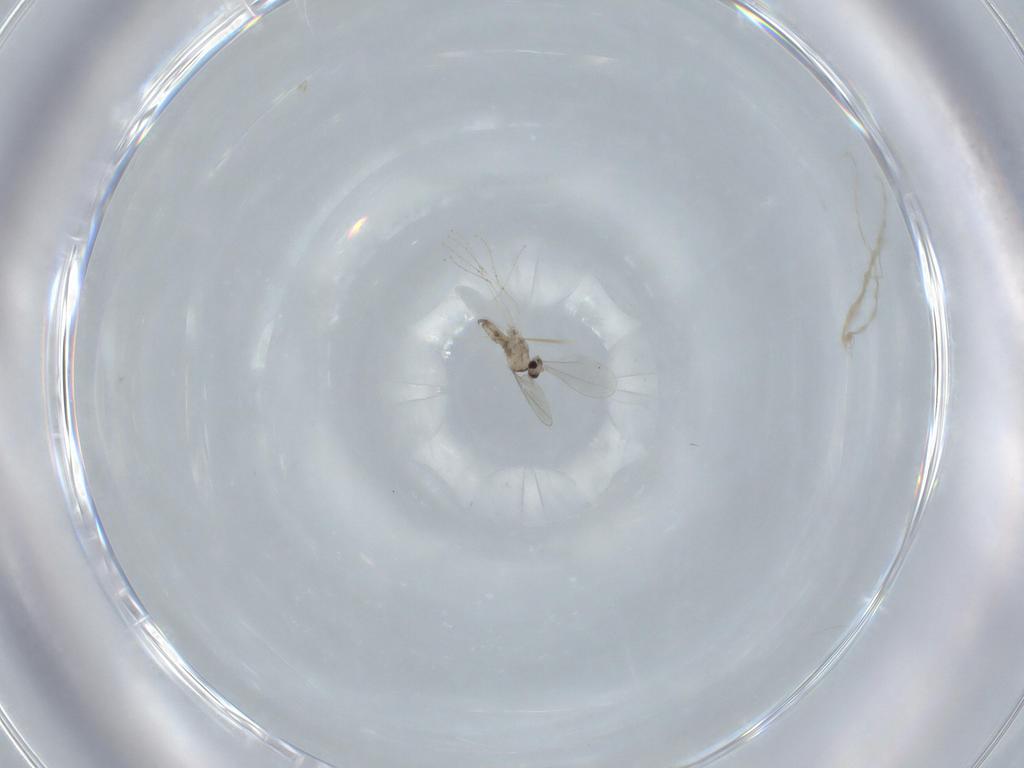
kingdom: Animalia
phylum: Arthropoda
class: Insecta
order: Diptera
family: Cecidomyiidae
